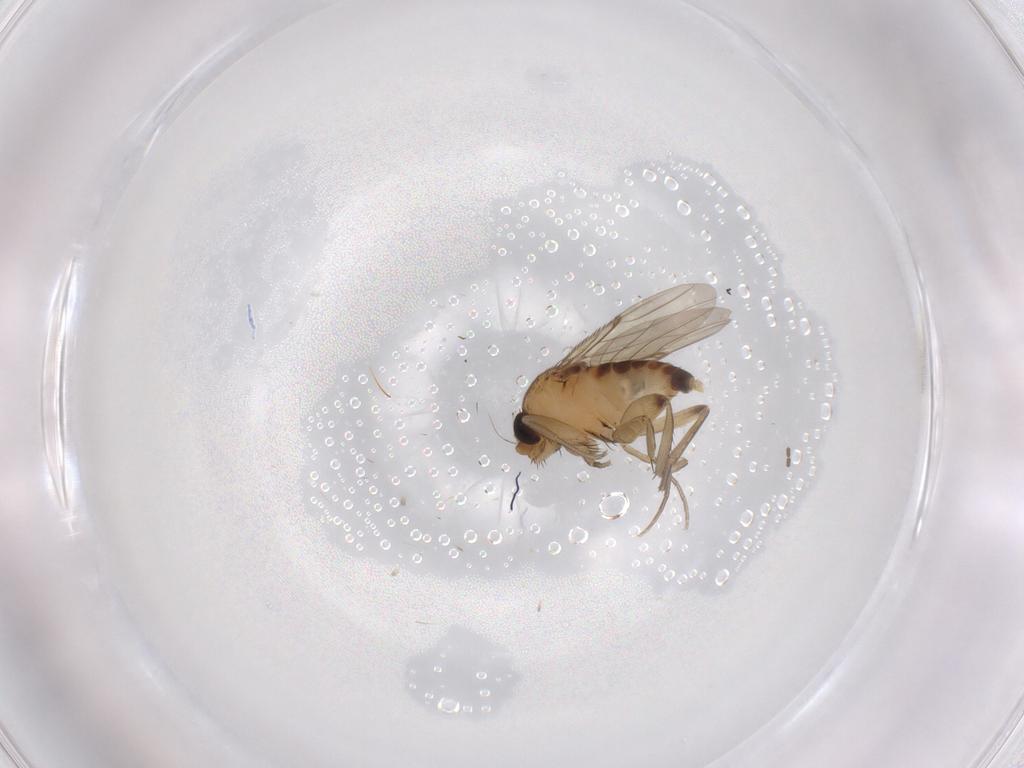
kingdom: Animalia
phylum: Arthropoda
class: Insecta
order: Diptera
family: Phoridae
